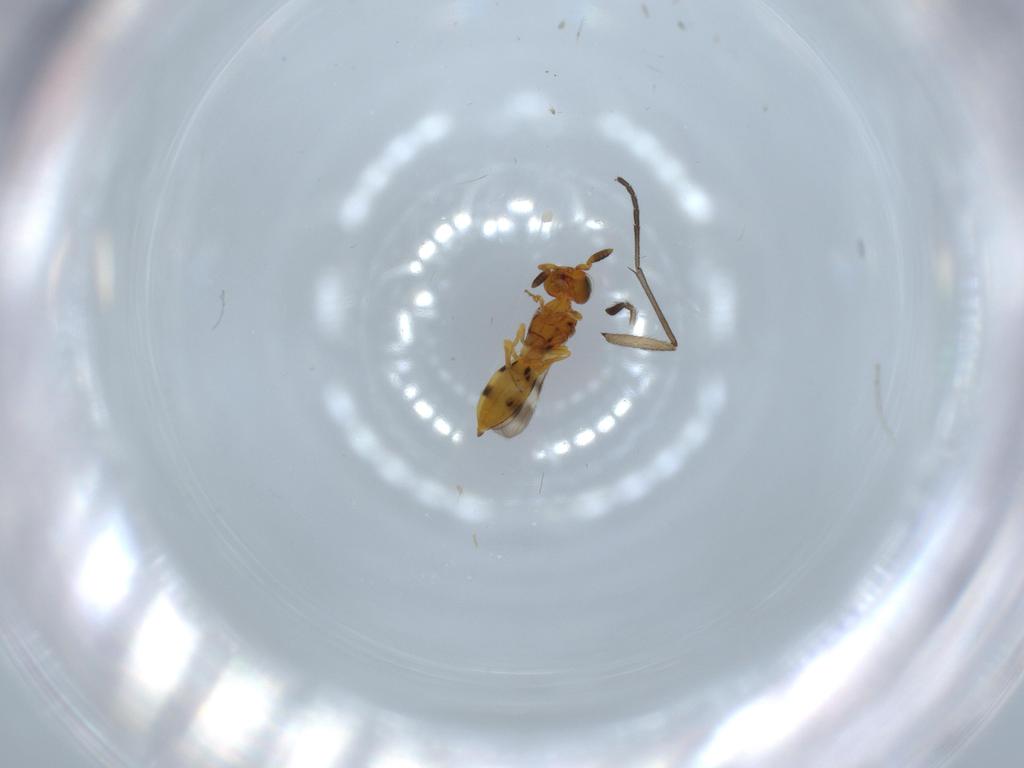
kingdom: Animalia
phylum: Arthropoda
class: Insecta
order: Hymenoptera
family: Scelionidae
